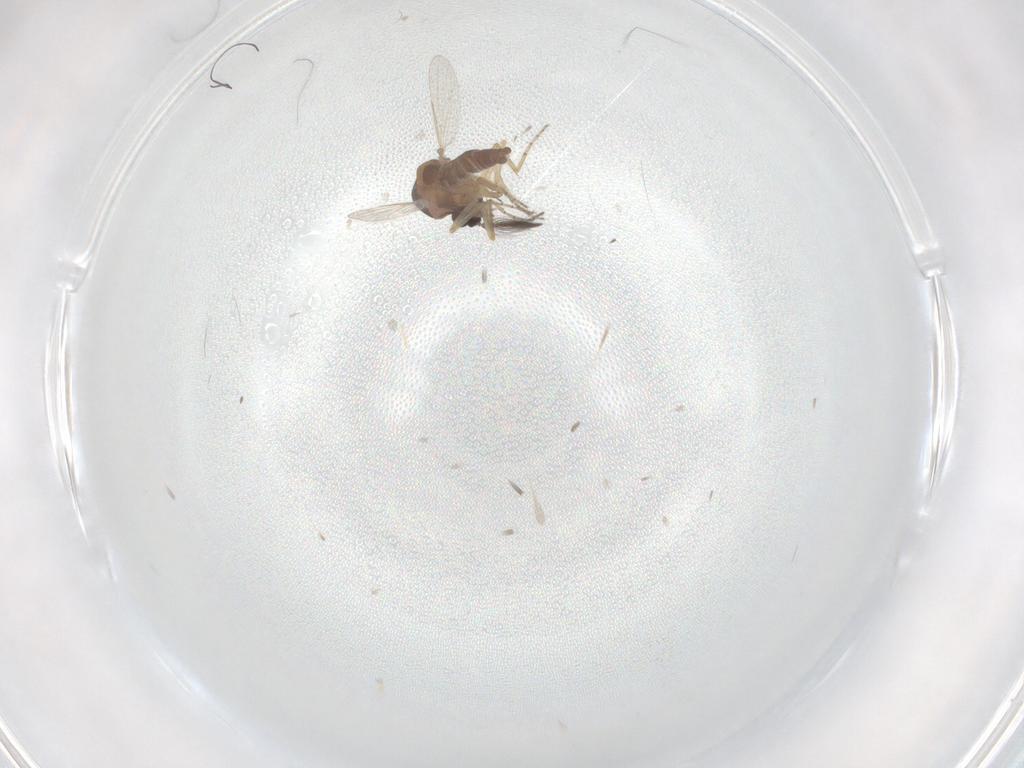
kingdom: Animalia
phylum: Arthropoda
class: Insecta
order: Diptera
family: Ceratopogonidae
